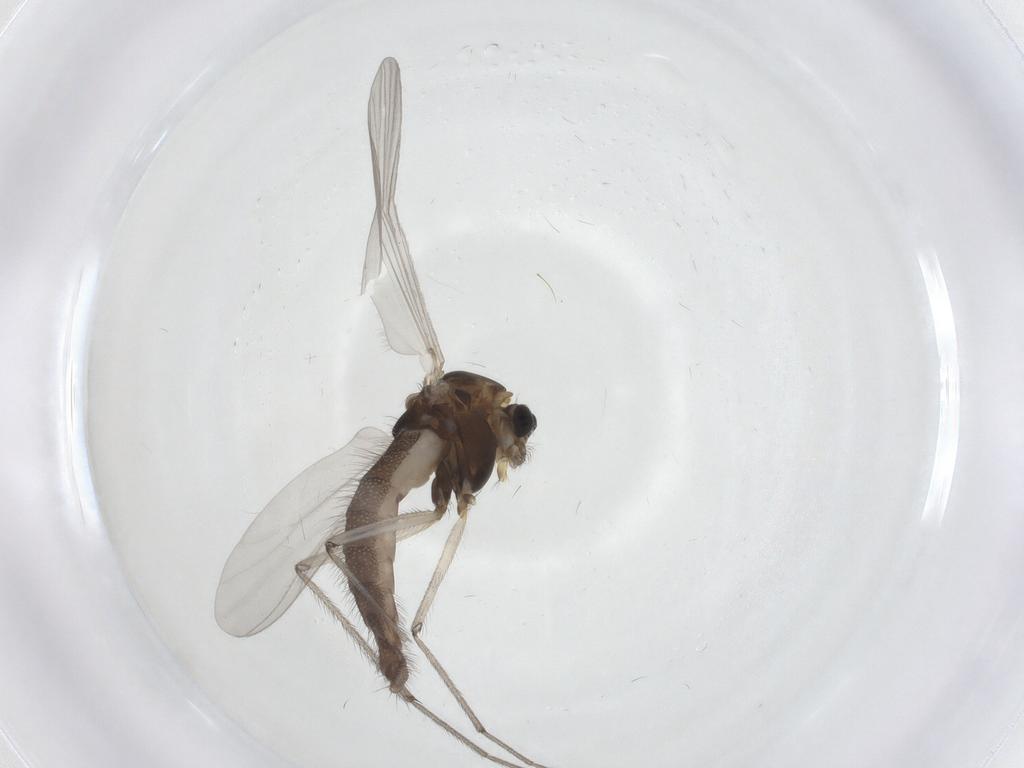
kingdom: Animalia
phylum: Arthropoda
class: Insecta
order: Diptera
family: Chironomidae
